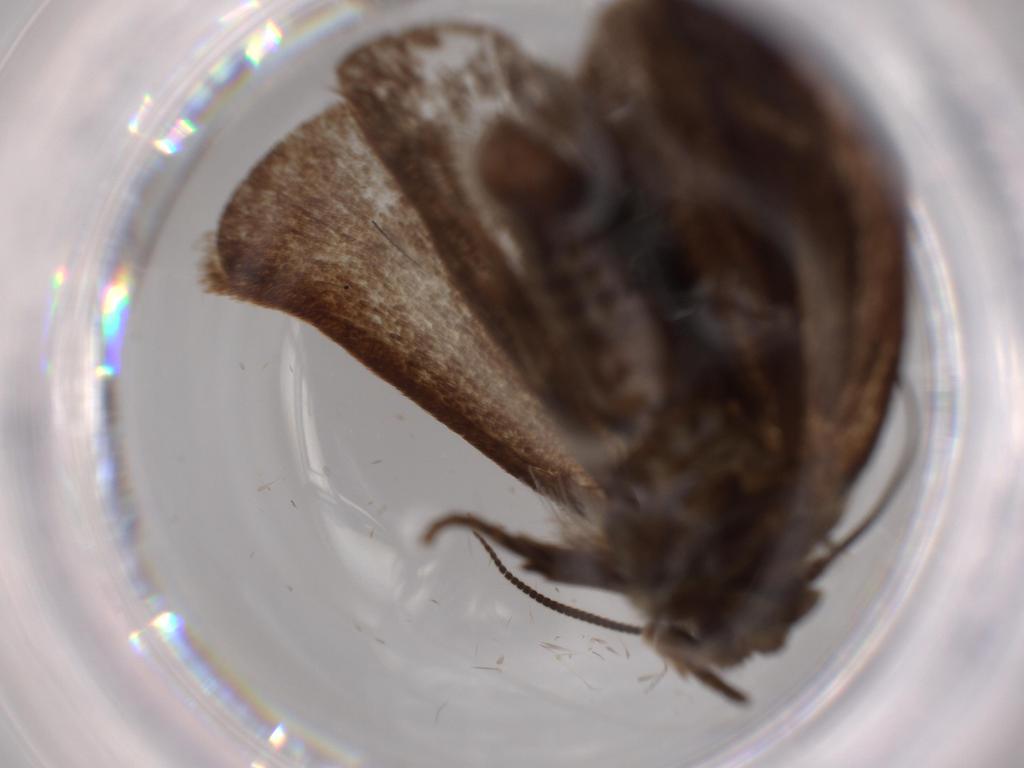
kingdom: Animalia
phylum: Arthropoda
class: Insecta
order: Lepidoptera
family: Tineidae
